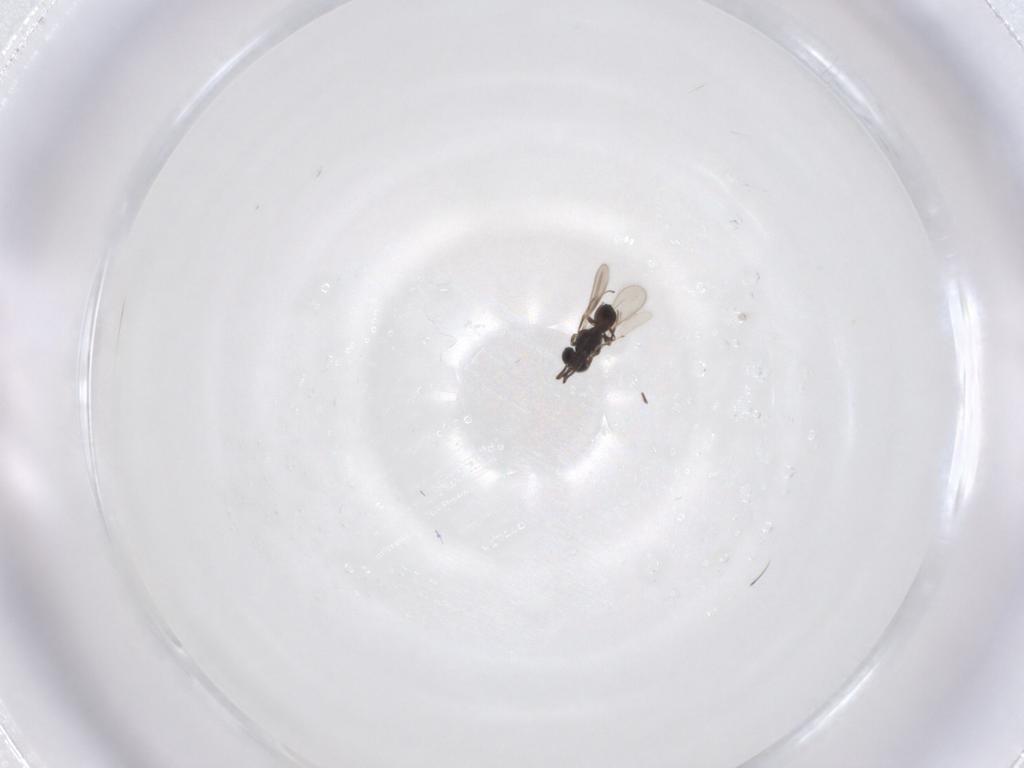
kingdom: Animalia
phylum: Arthropoda
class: Insecta
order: Hymenoptera
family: Scelionidae
